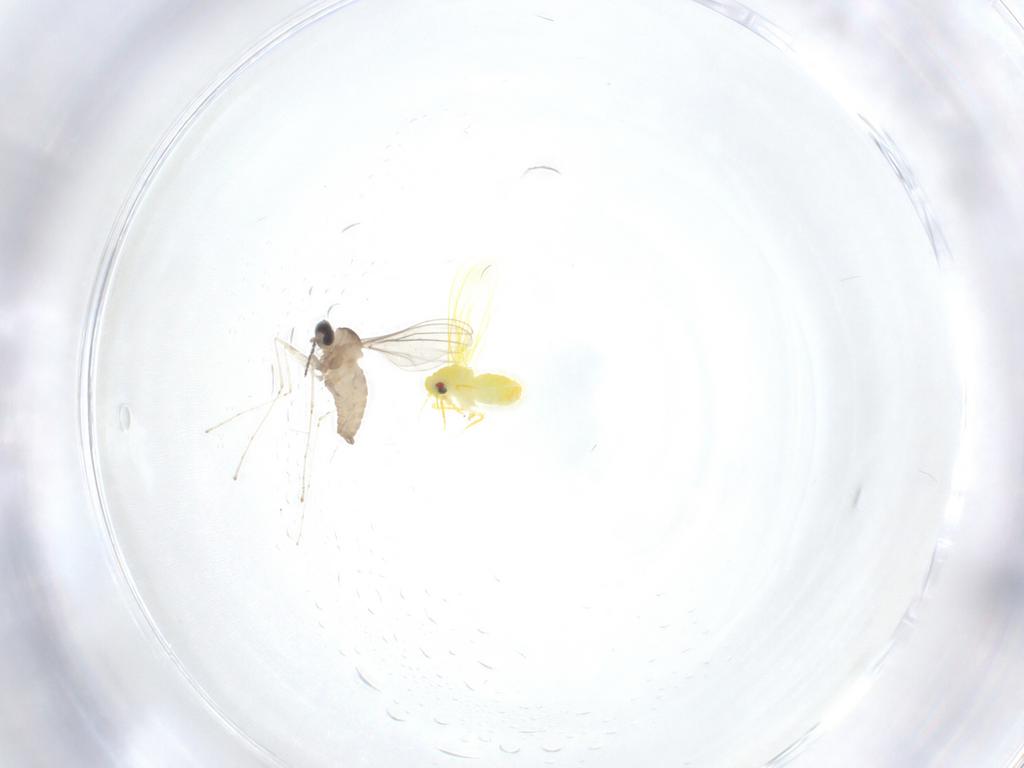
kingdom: Animalia
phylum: Arthropoda
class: Insecta
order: Diptera
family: Cecidomyiidae
